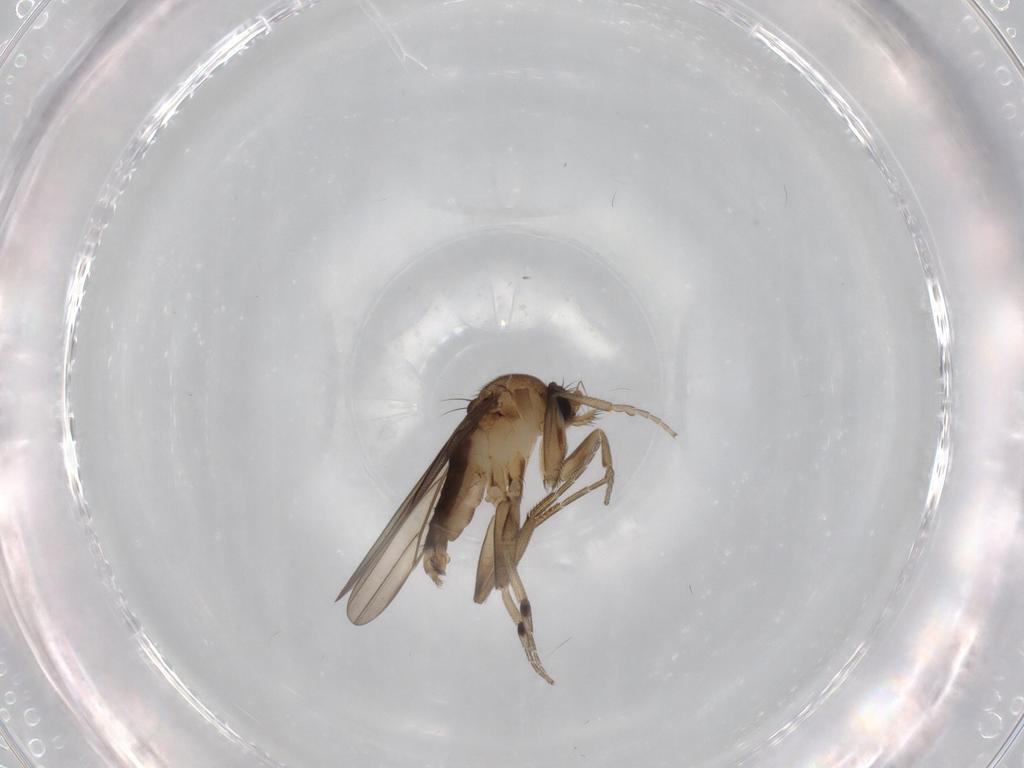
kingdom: Animalia
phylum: Arthropoda
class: Insecta
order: Diptera
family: Phoridae
